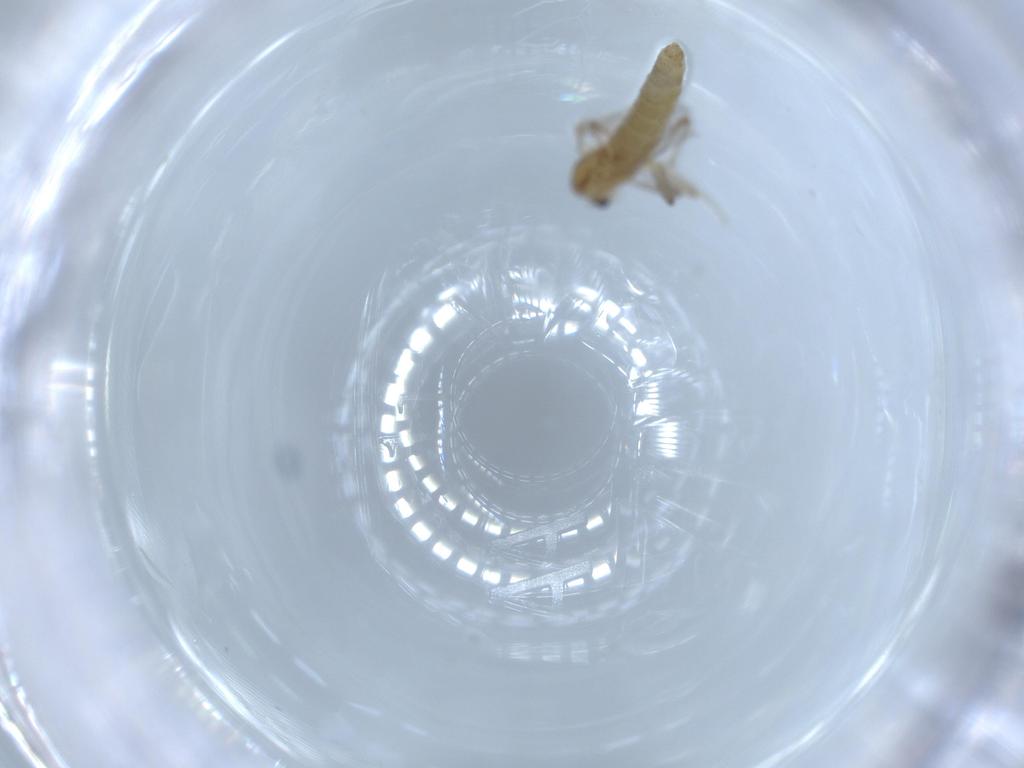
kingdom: Animalia
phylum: Arthropoda
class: Insecta
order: Diptera
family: Chironomidae
